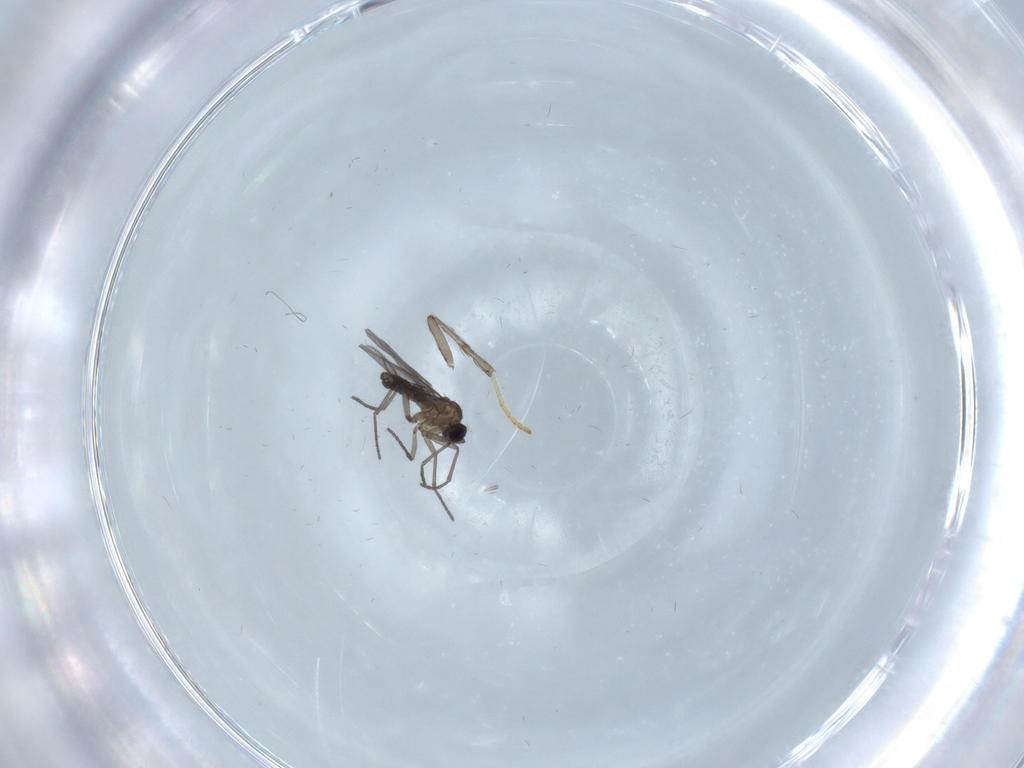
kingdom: Animalia
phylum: Arthropoda
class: Insecta
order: Diptera
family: Psychodidae
